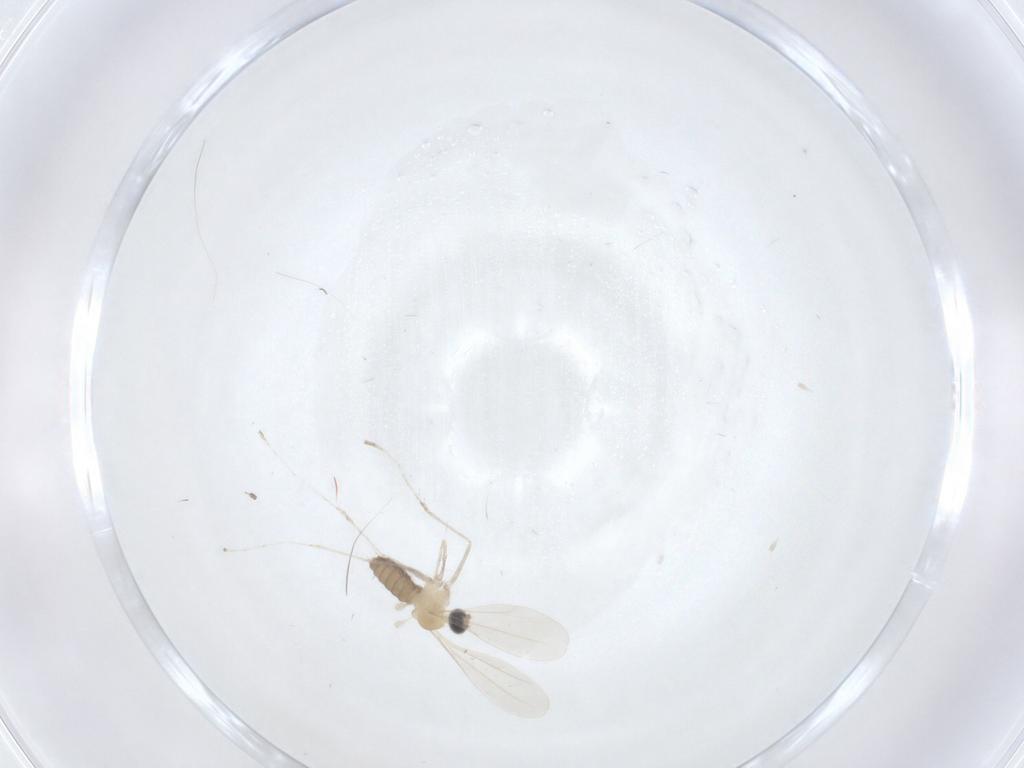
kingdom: Animalia
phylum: Arthropoda
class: Insecta
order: Diptera
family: Cecidomyiidae
